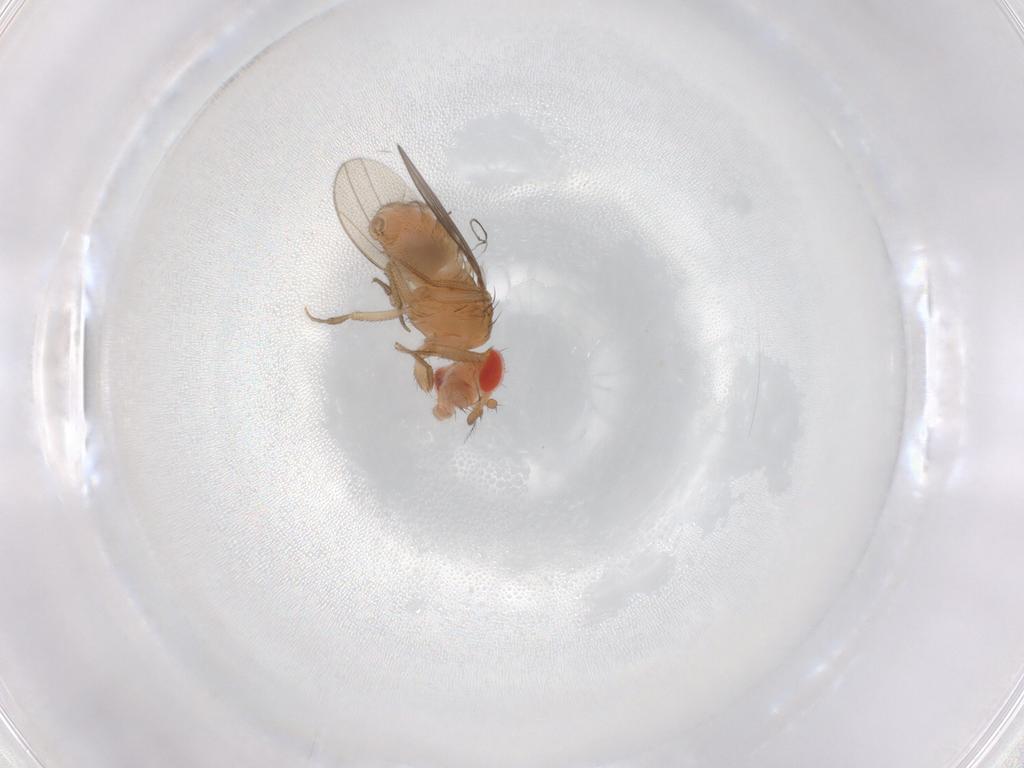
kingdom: Animalia
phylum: Arthropoda
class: Insecta
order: Diptera
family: Drosophilidae
